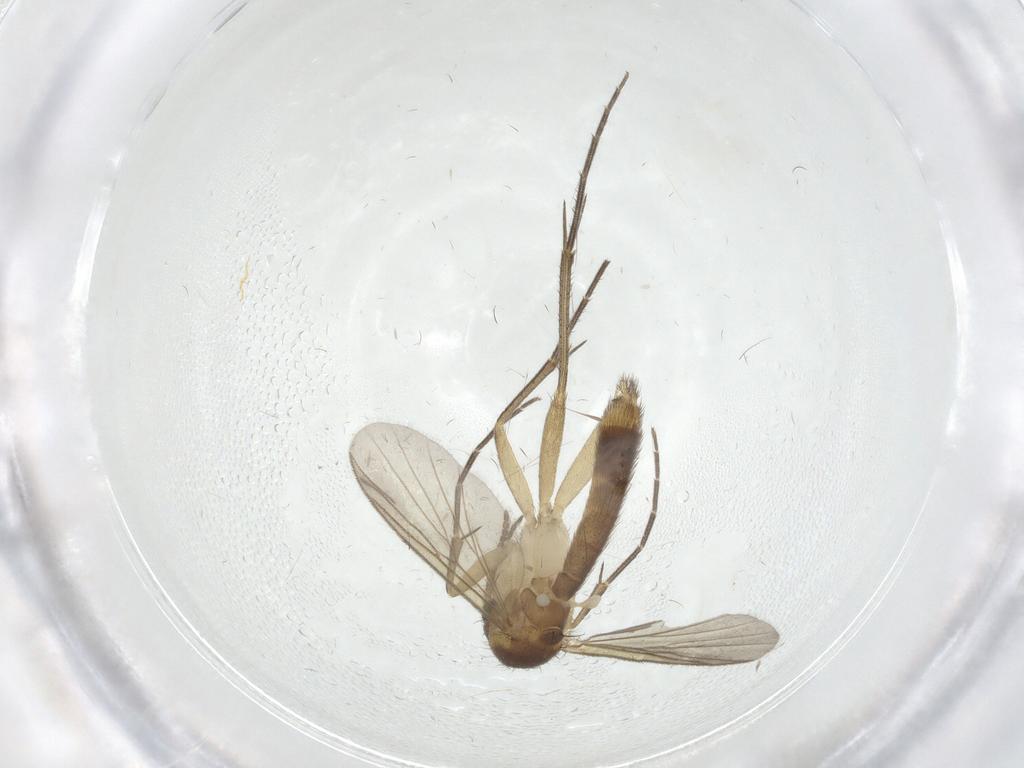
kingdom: Animalia
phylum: Arthropoda
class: Insecta
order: Diptera
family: Mycetophilidae
